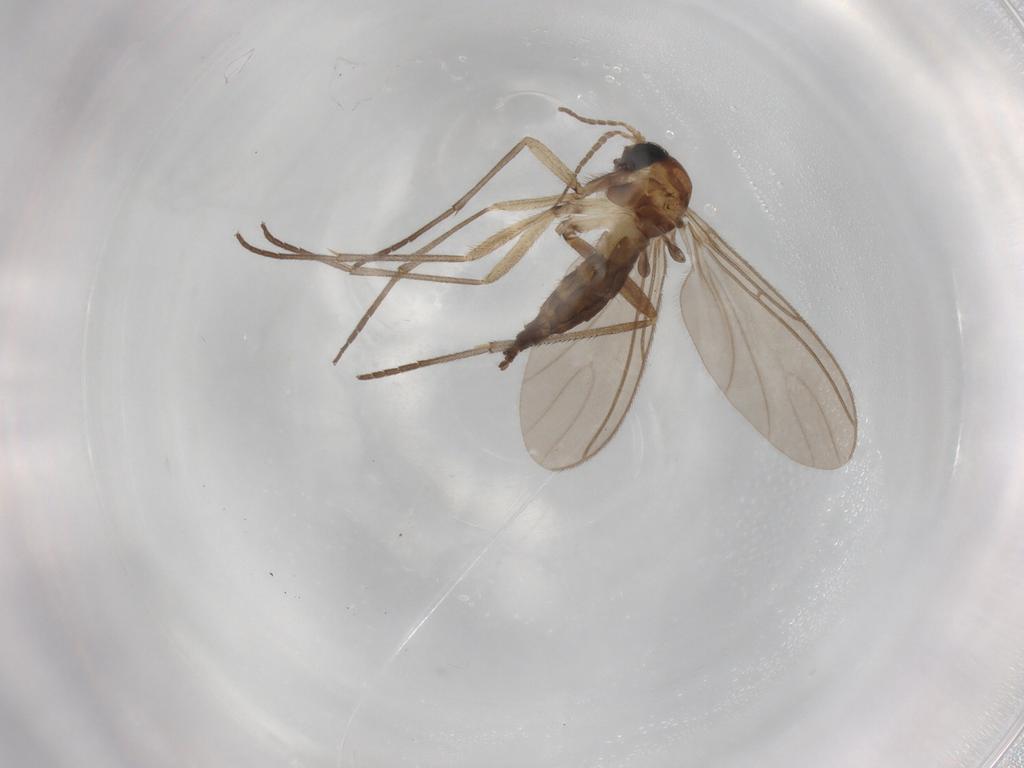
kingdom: Animalia
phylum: Arthropoda
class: Insecta
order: Diptera
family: Sciaridae
